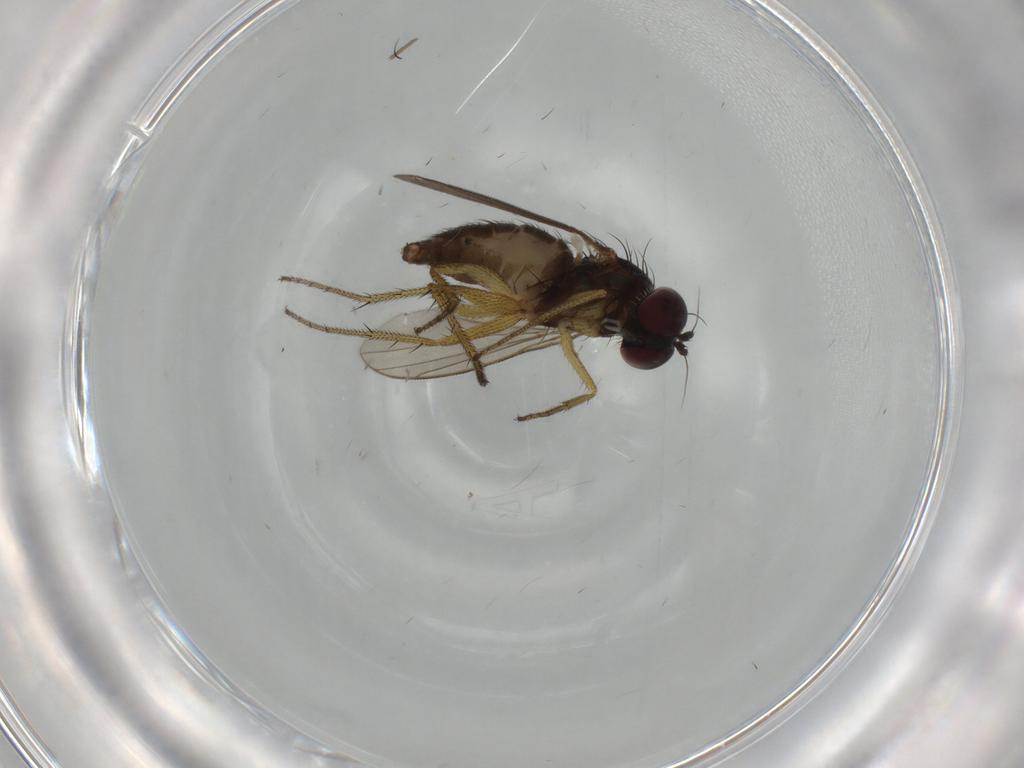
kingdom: Animalia
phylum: Arthropoda
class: Insecta
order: Diptera
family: Dolichopodidae
